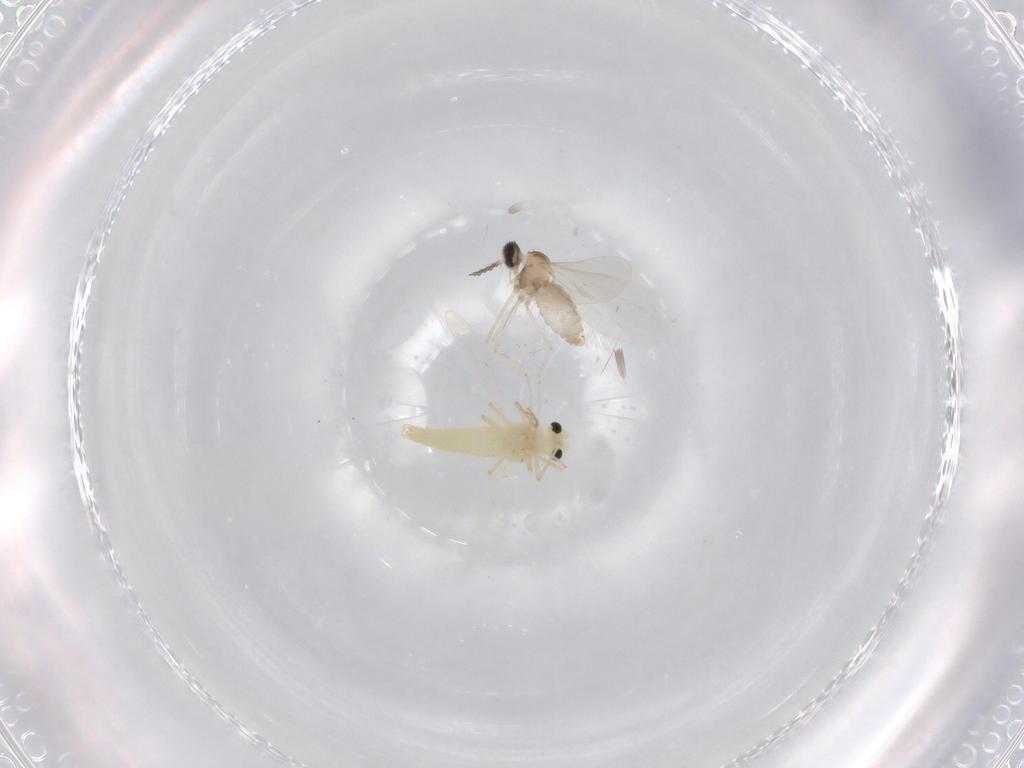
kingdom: Animalia
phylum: Arthropoda
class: Insecta
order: Diptera
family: Chironomidae
